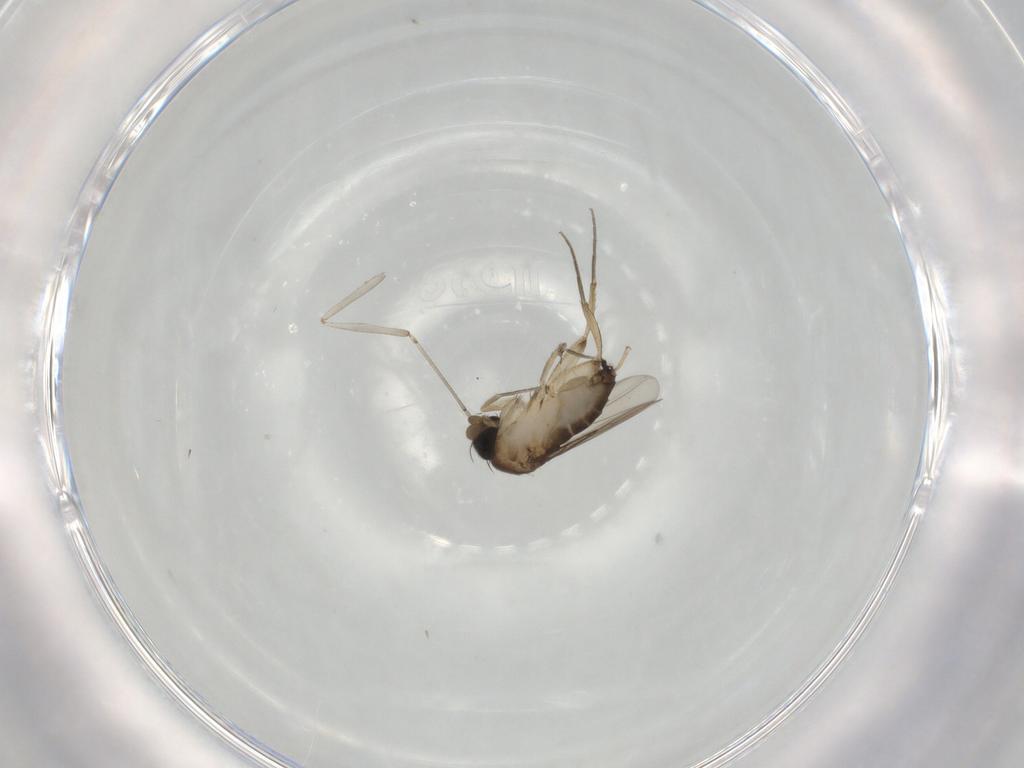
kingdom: Animalia
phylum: Arthropoda
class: Insecta
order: Diptera
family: Phoridae
